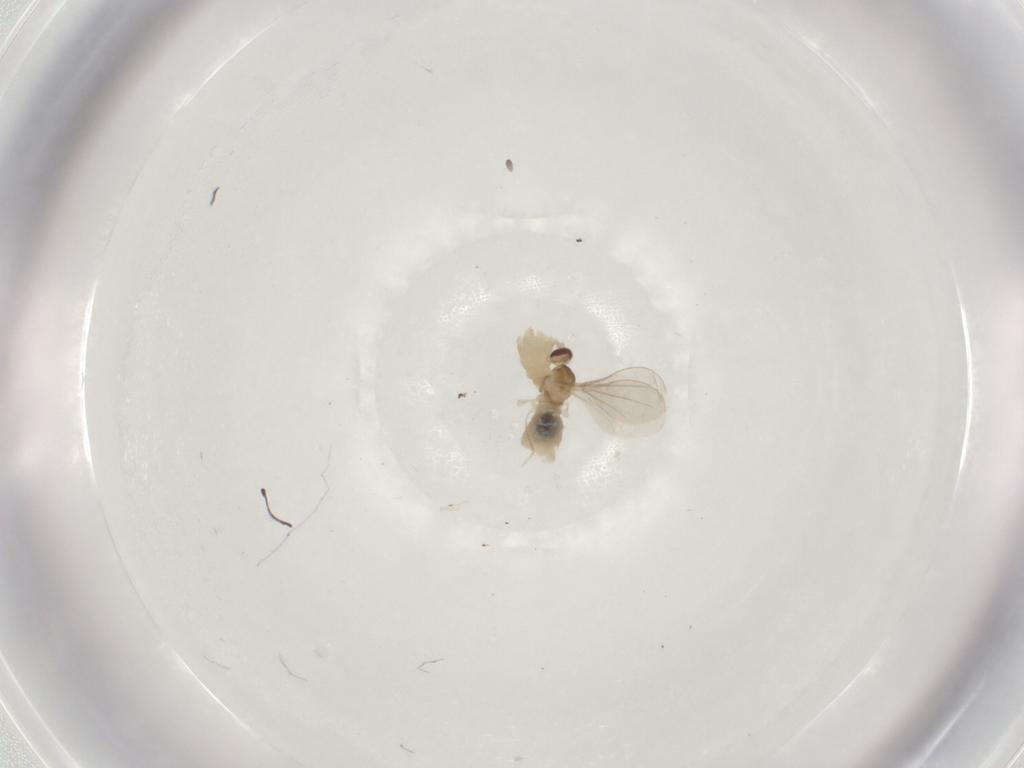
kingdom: Animalia
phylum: Arthropoda
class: Insecta
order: Diptera
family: Cecidomyiidae
